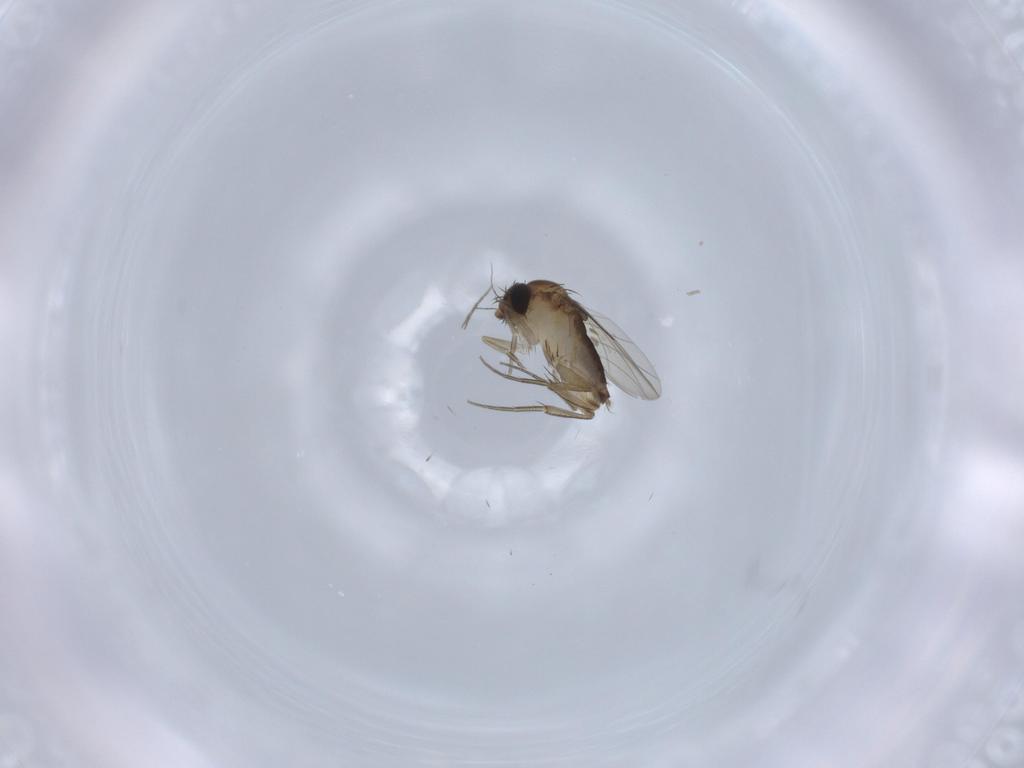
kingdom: Animalia
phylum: Arthropoda
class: Insecta
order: Diptera
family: Phoridae
